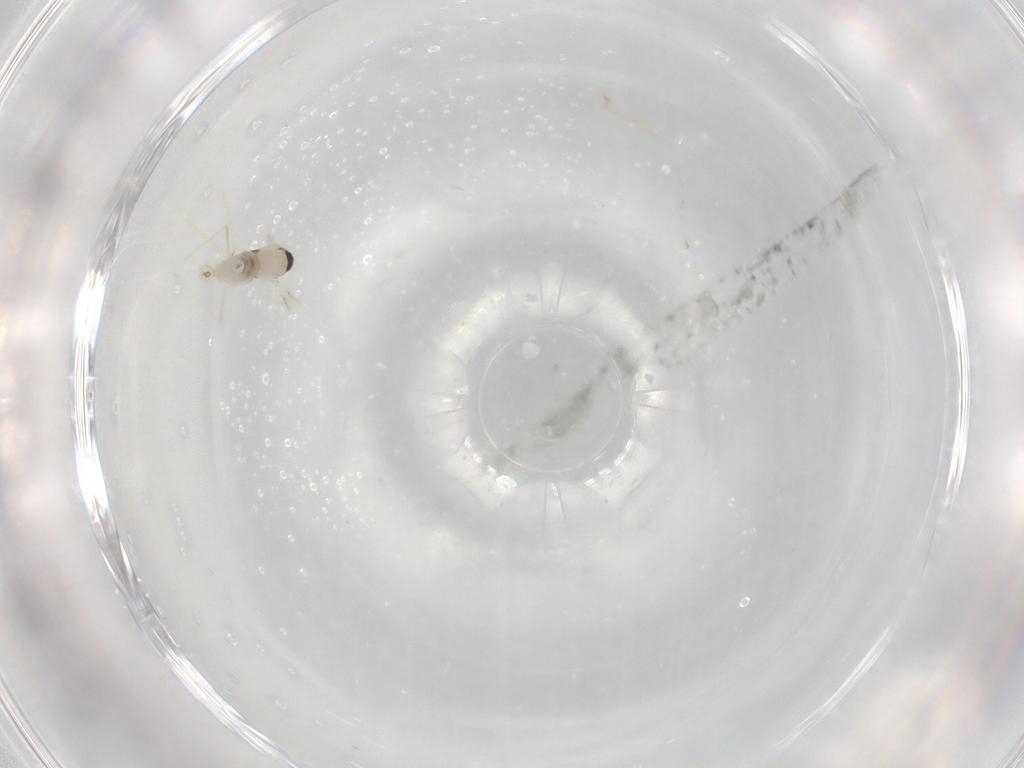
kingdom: Animalia
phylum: Arthropoda
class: Insecta
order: Diptera
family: Cecidomyiidae
